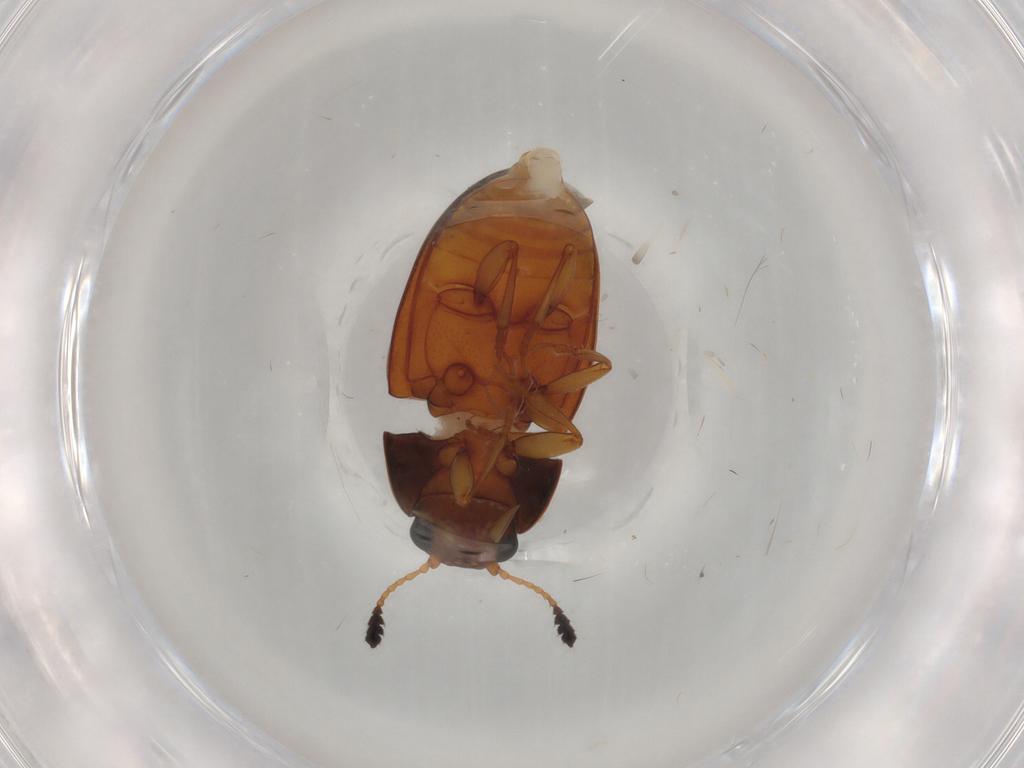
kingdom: Animalia
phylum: Arthropoda
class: Insecta
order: Coleoptera
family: Erotylidae
